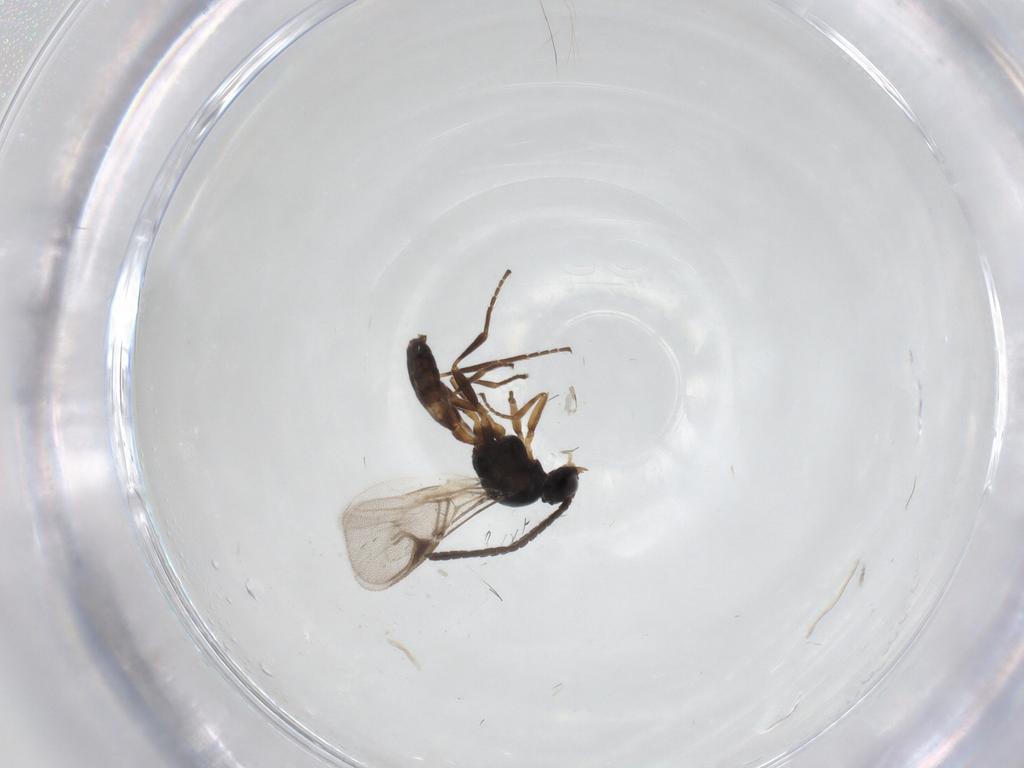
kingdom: Animalia
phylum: Arthropoda
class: Insecta
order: Hymenoptera
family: Braconidae
